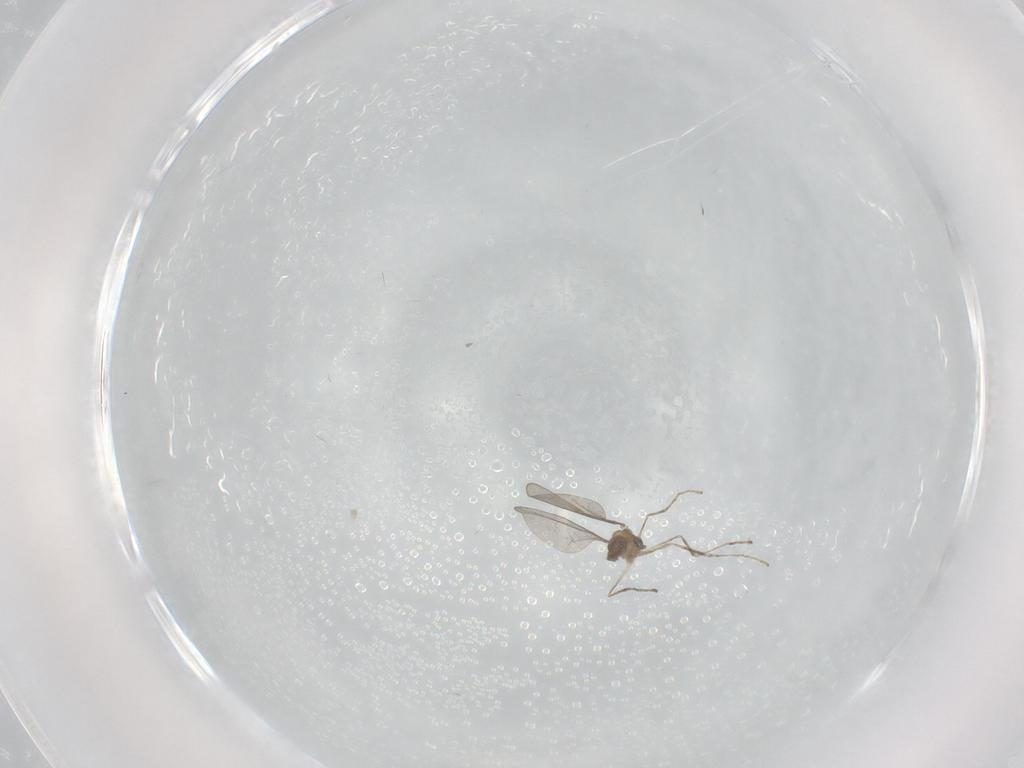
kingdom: Animalia
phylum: Arthropoda
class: Insecta
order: Diptera
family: Cecidomyiidae
